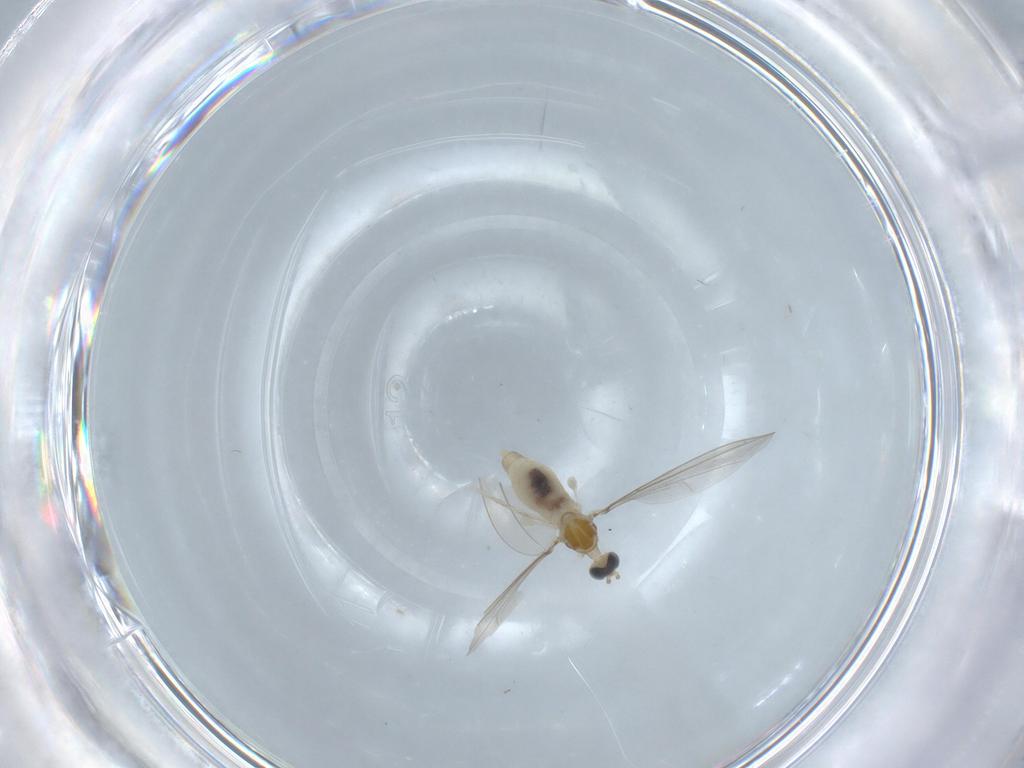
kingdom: Animalia
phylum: Arthropoda
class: Insecta
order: Diptera
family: Cecidomyiidae
